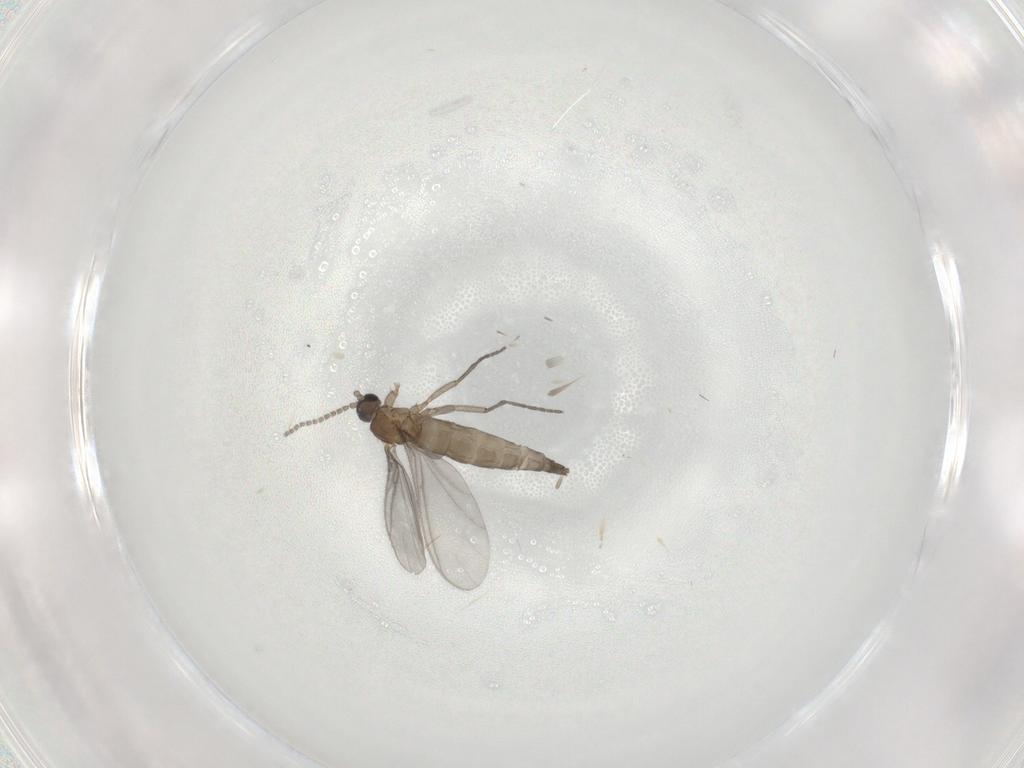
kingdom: Animalia
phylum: Arthropoda
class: Insecta
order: Diptera
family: Sciaridae
